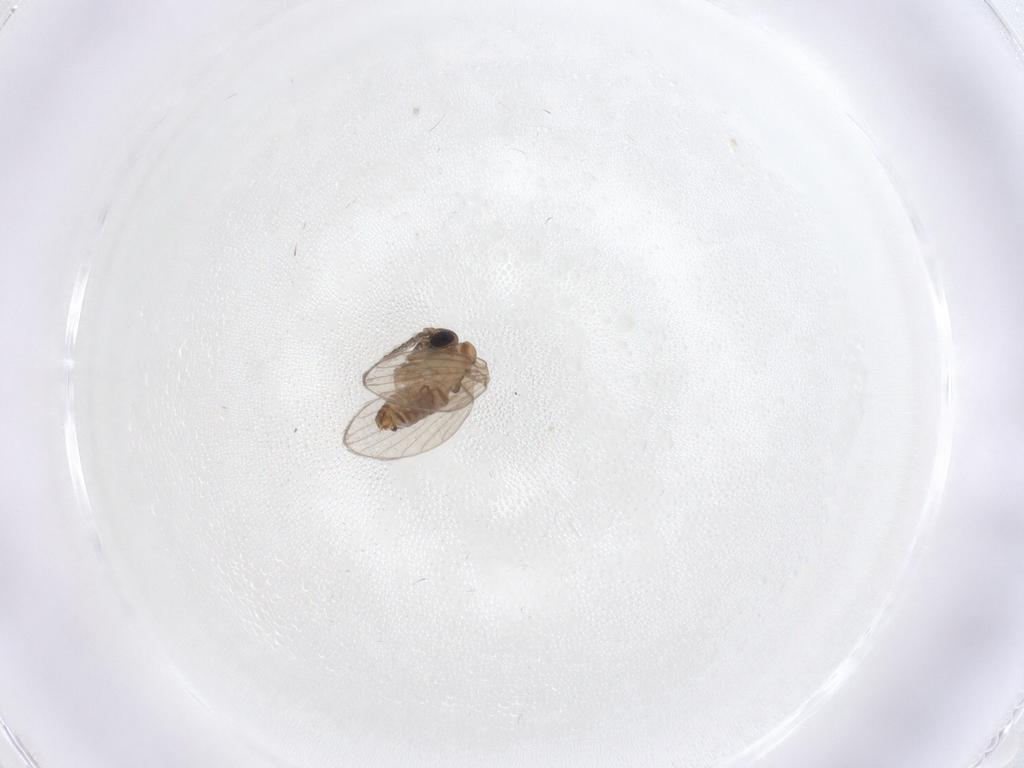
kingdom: Animalia
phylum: Arthropoda
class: Insecta
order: Diptera
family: Psychodidae
